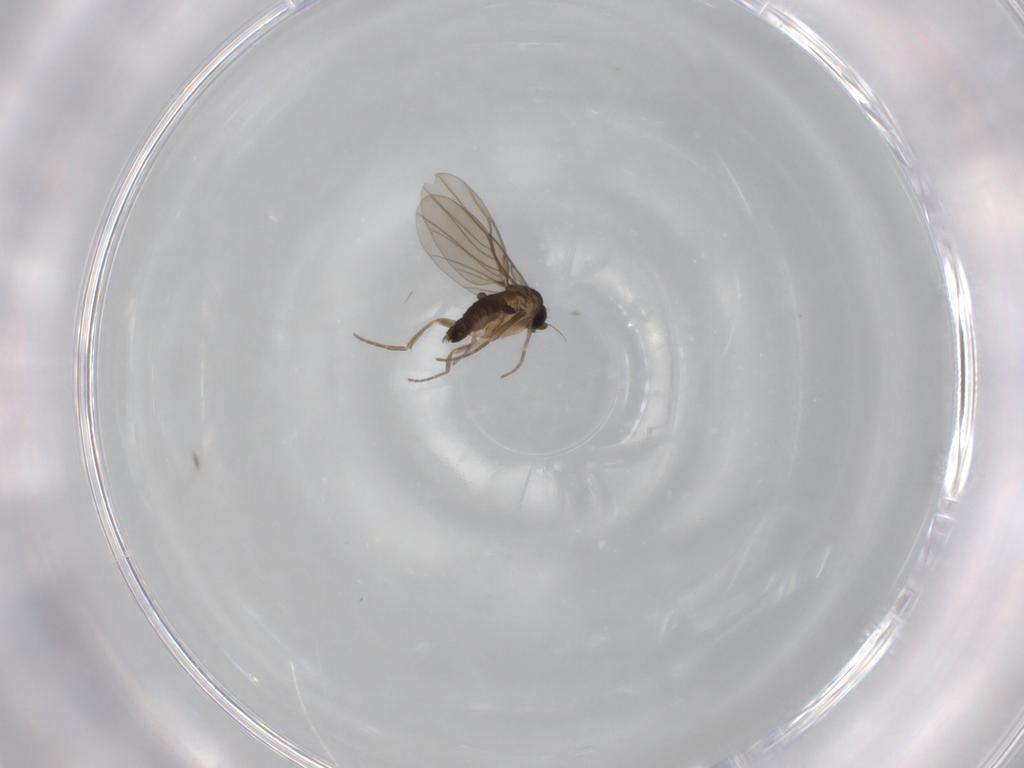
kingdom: Animalia
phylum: Arthropoda
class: Insecta
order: Diptera
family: Phoridae
